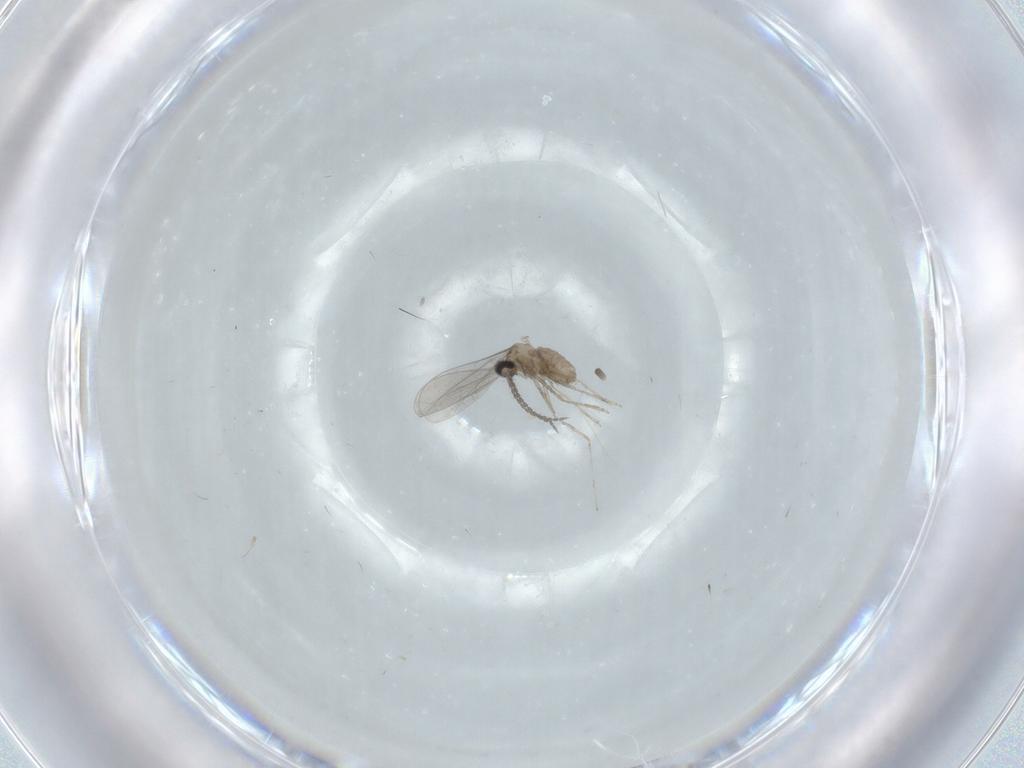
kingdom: Animalia
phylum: Arthropoda
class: Insecta
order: Diptera
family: Cecidomyiidae
